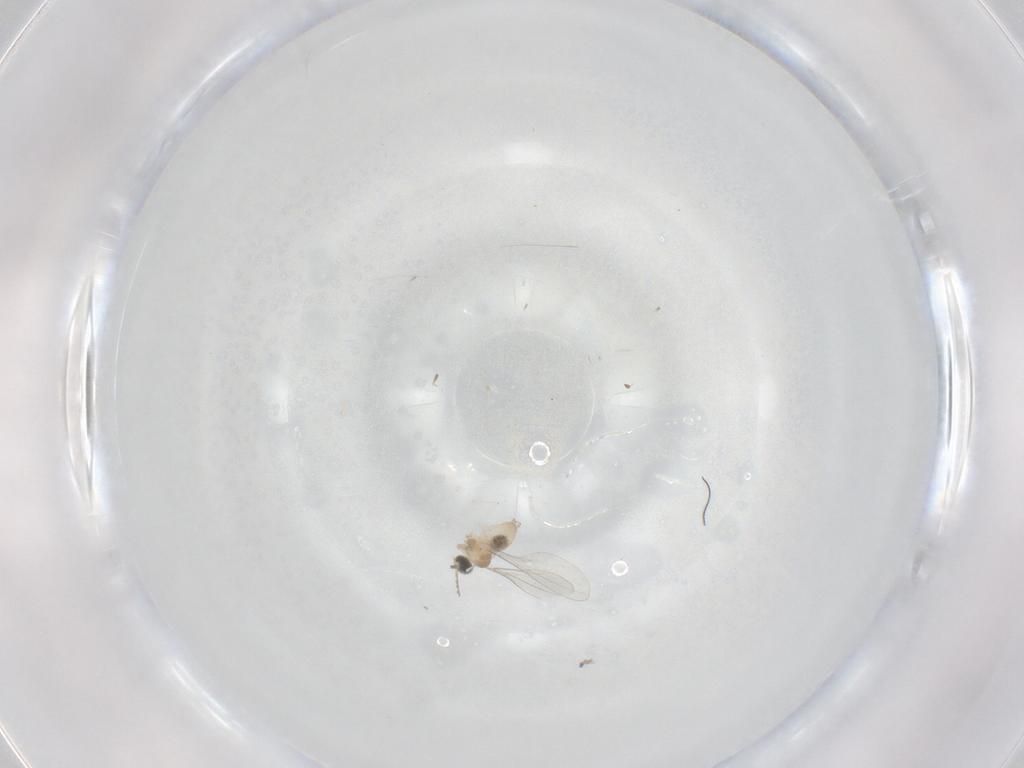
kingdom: Animalia
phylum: Arthropoda
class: Insecta
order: Diptera
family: Cecidomyiidae
